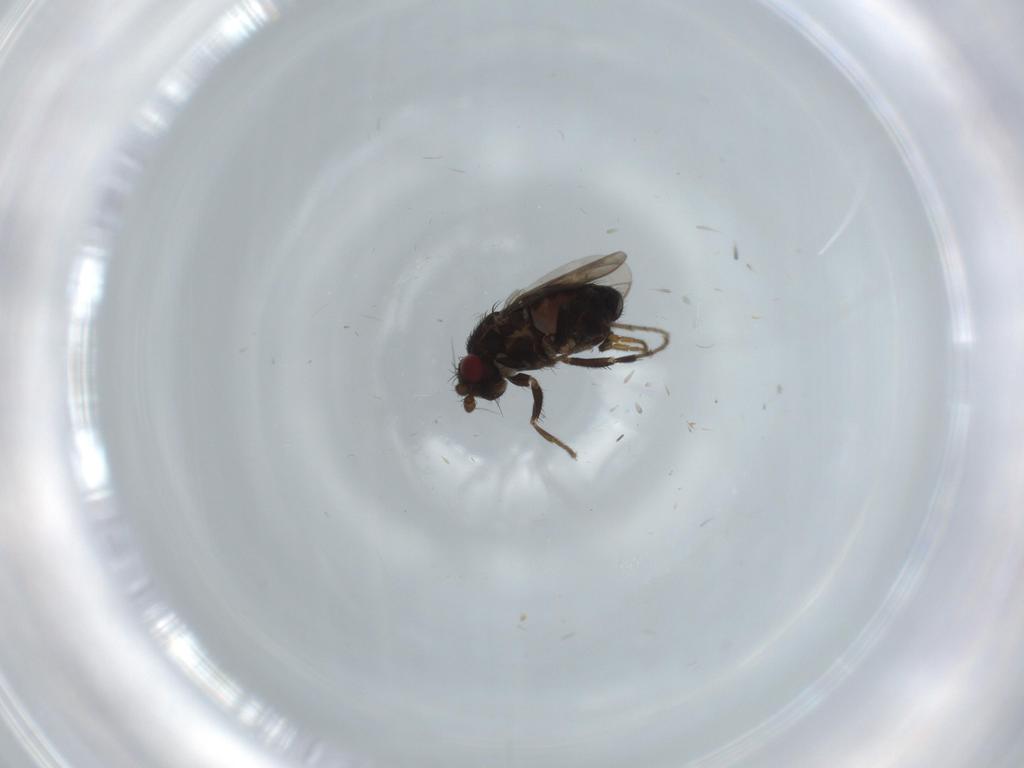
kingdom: Animalia
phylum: Arthropoda
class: Insecta
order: Diptera
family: Sphaeroceridae
